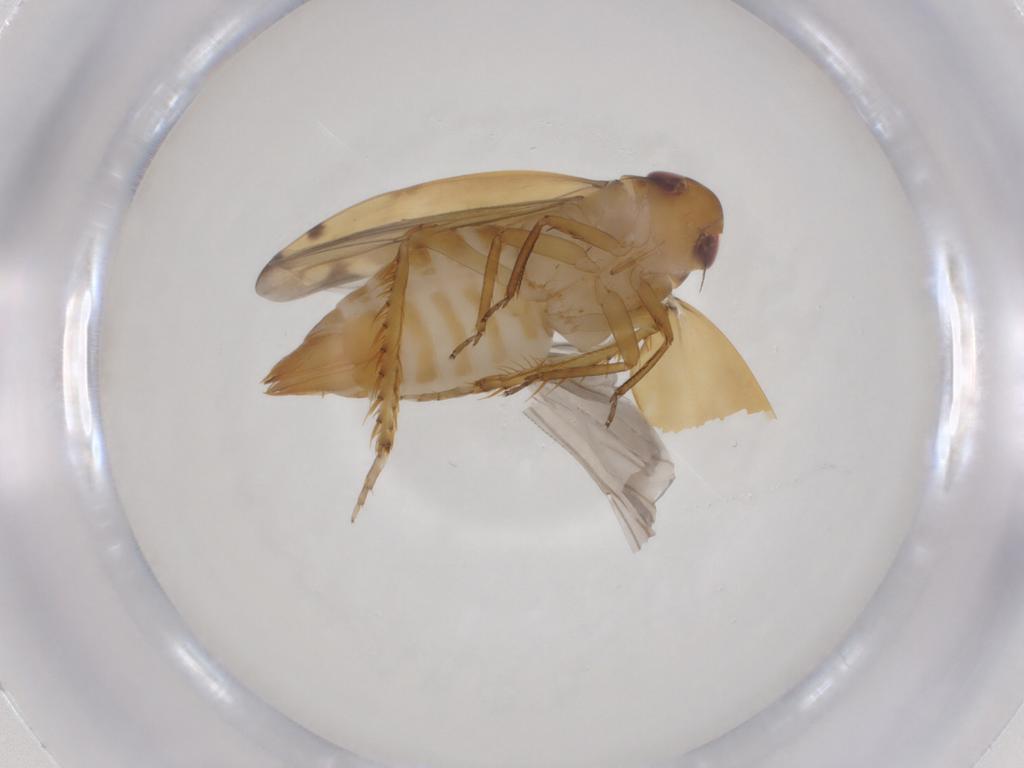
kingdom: Animalia
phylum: Arthropoda
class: Insecta
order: Hemiptera
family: Cicadellidae
